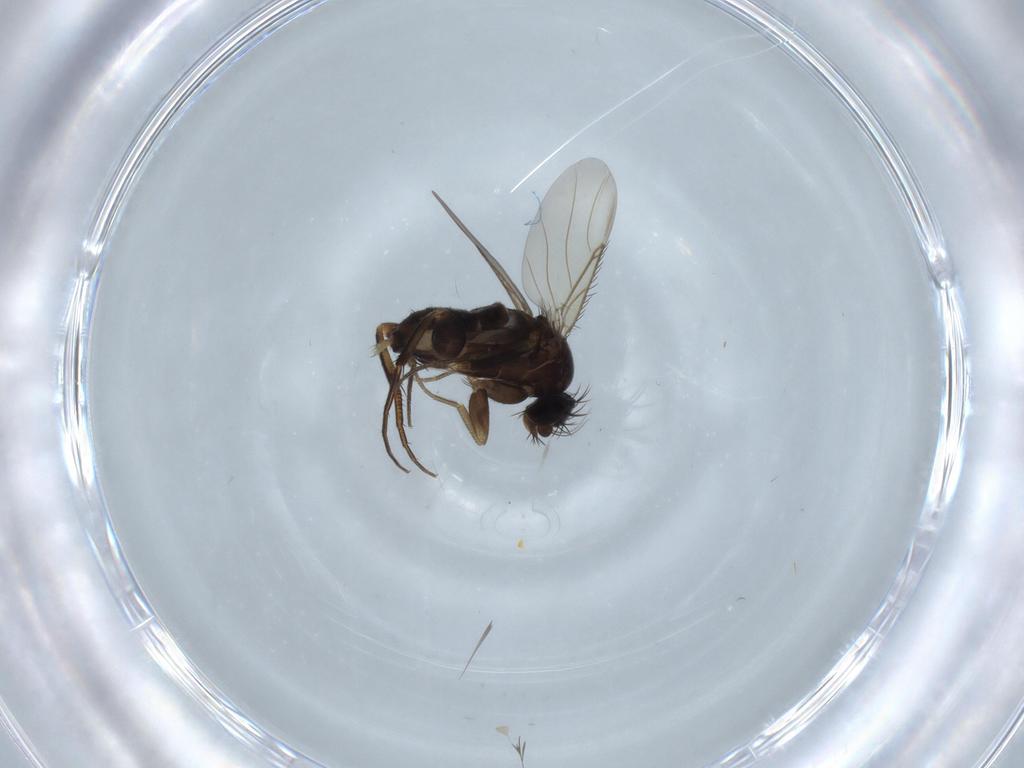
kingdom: Animalia
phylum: Arthropoda
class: Insecta
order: Diptera
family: Phoridae
